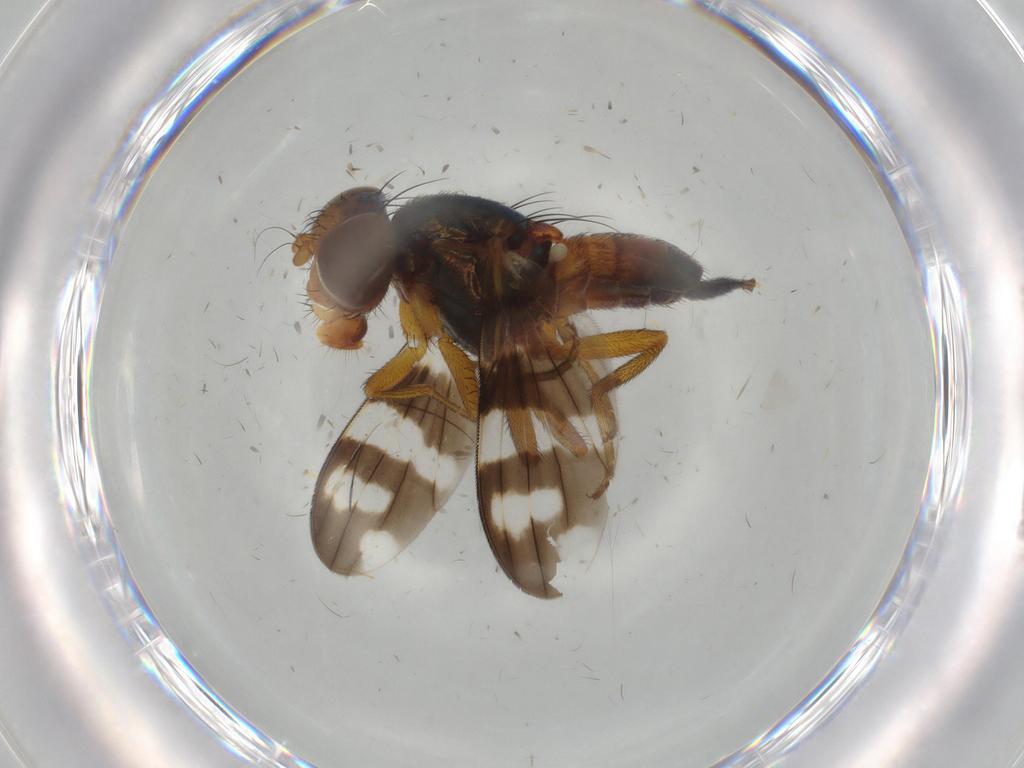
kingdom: Animalia
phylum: Arthropoda
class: Insecta
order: Diptera
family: Ulidiidae
